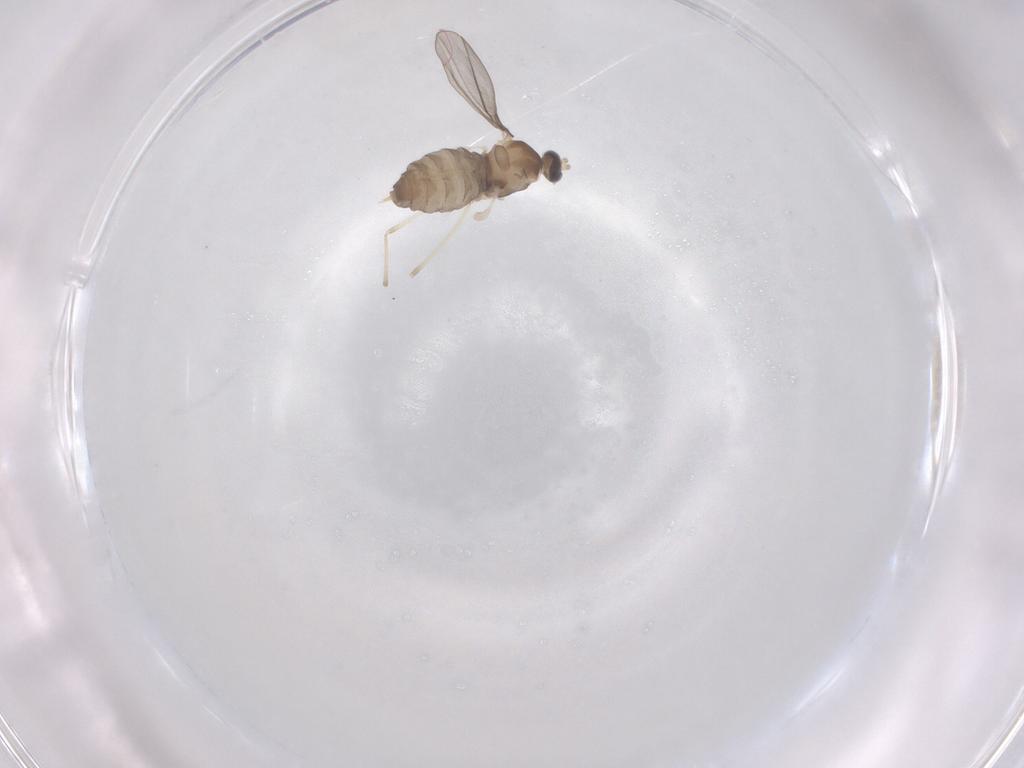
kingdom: Animalia
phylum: Arthropoda
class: Insecta
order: Diptera
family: Cecidomyiidae
